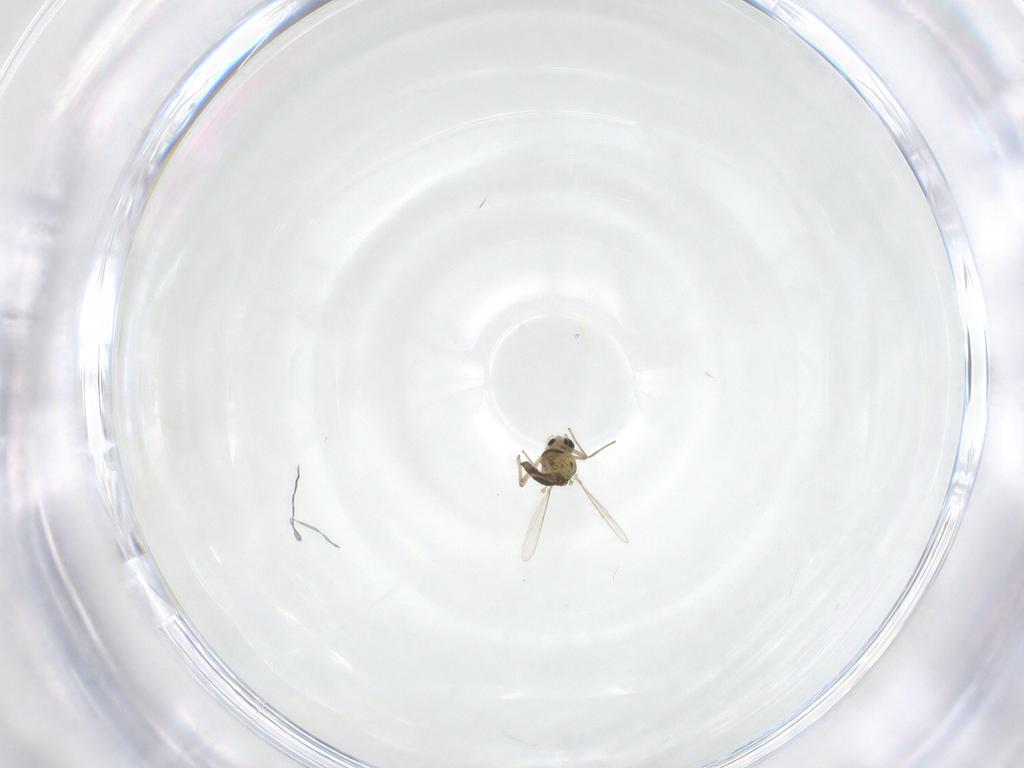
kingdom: Animalia
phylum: Arthropoda
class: Insecta
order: Diptera
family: Chironomidae
